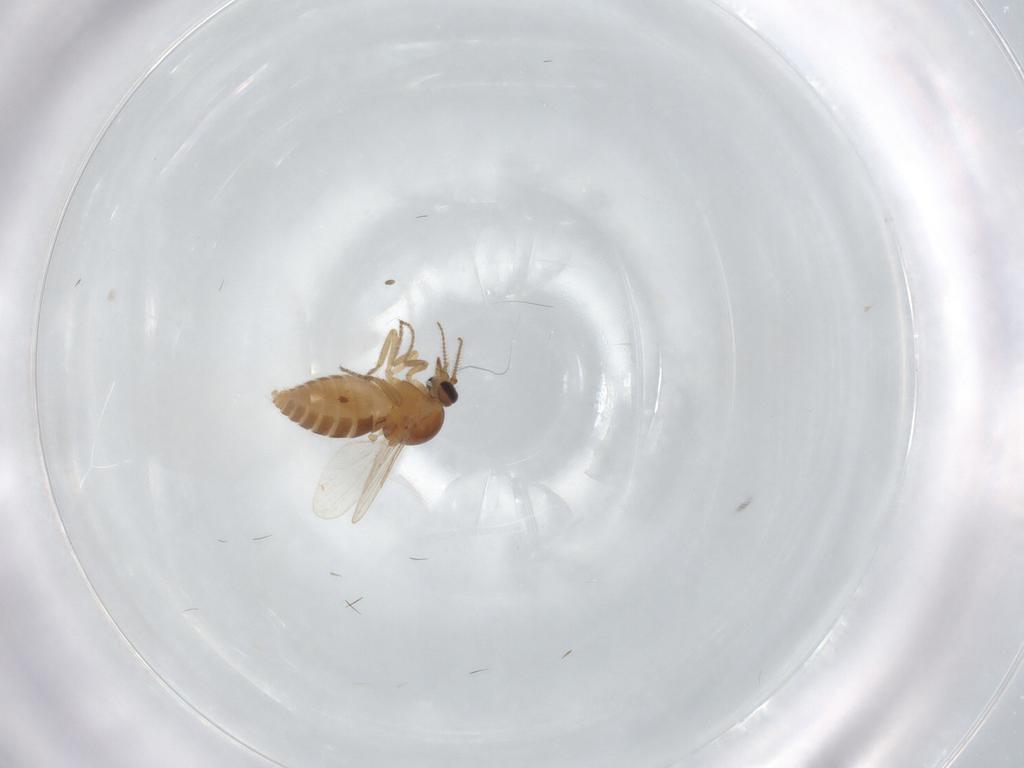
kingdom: Animalia
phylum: Arthropoda
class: Insecta
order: Diptera
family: Ceratopogonidae
